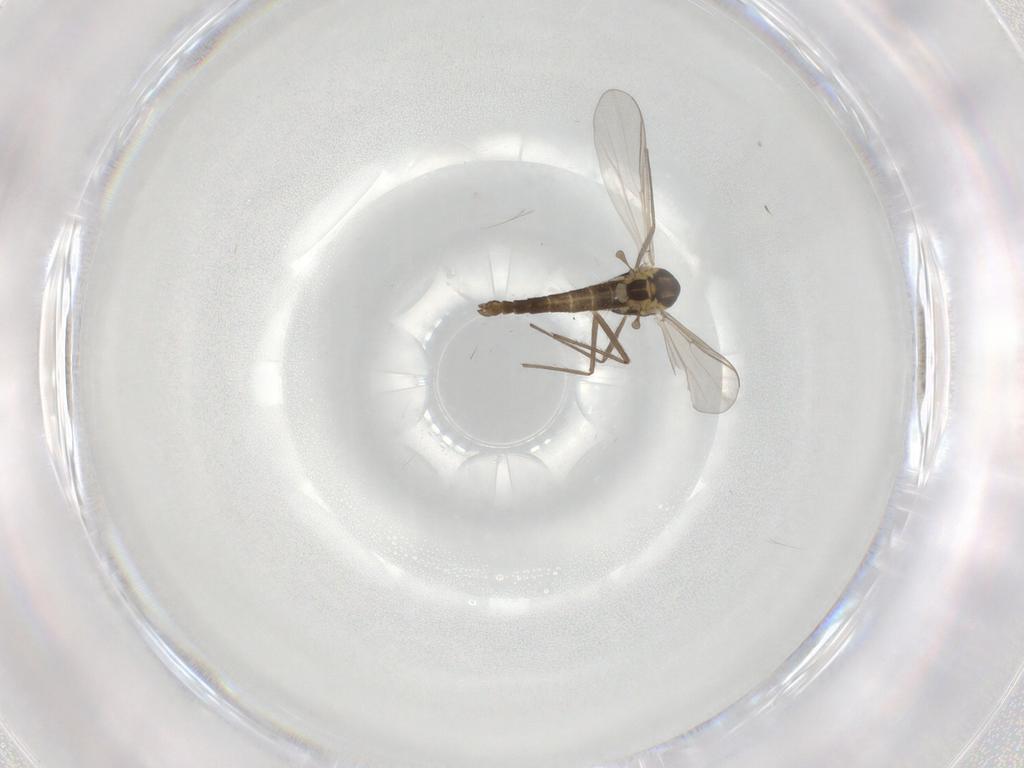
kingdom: Animalia
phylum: Arthropoda
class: Insecta
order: Diptera
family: Chironomidae
